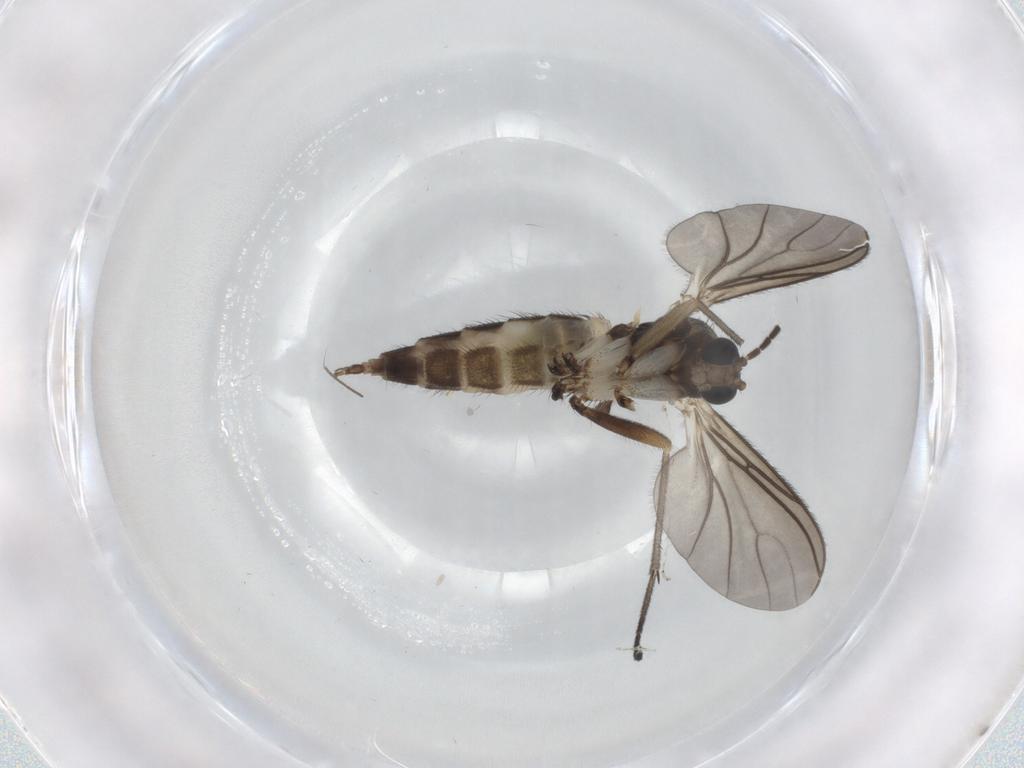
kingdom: Animalia
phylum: Arthropoda
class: Insecta
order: Diptera
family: Sciaridae
